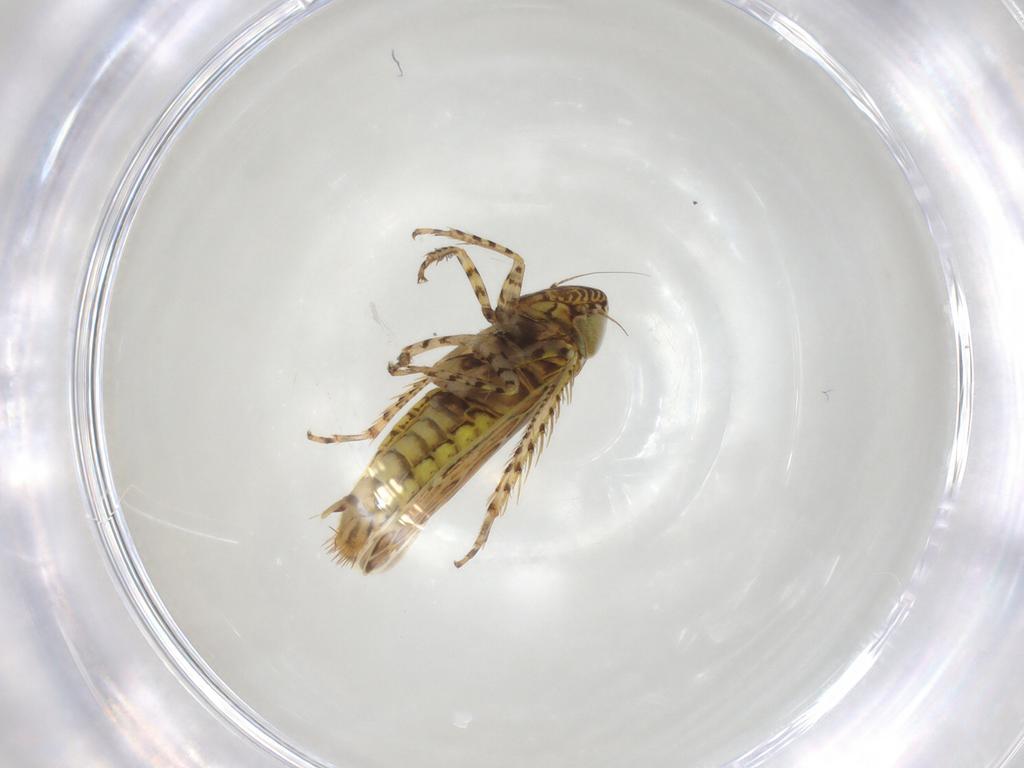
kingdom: Animalia
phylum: Arthropoda
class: Insecta
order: Hemiptera
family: Cicadellidae
